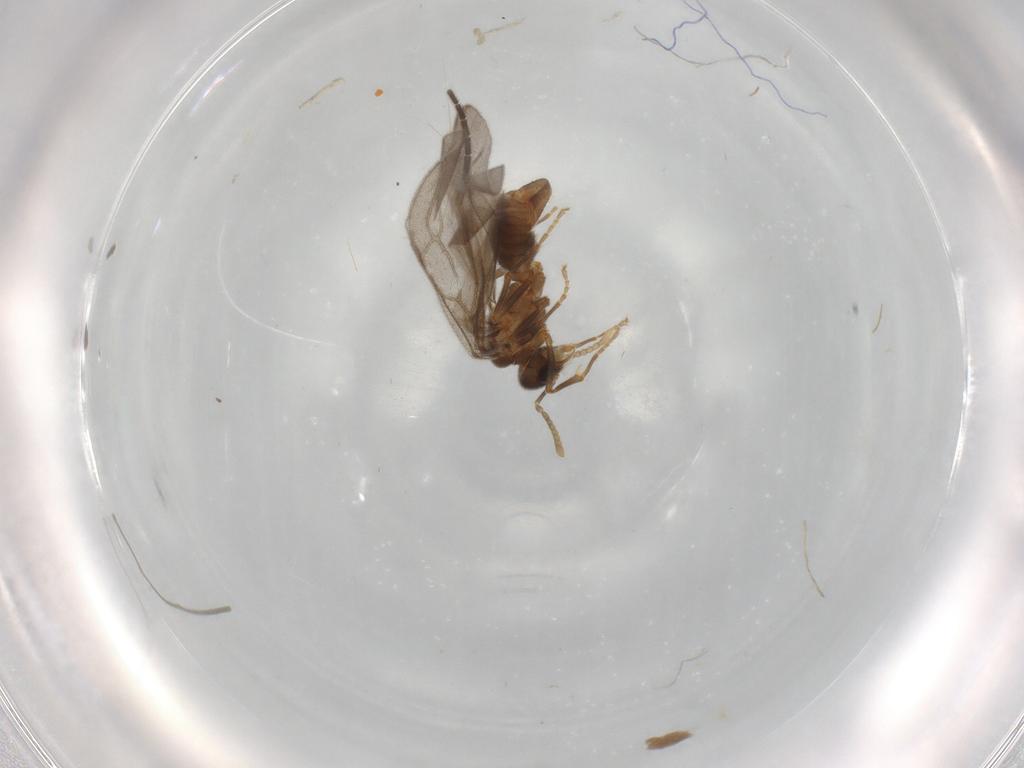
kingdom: Animalia
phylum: Arthropoda
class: Insecta
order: Hymenoptera
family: Formicidae
